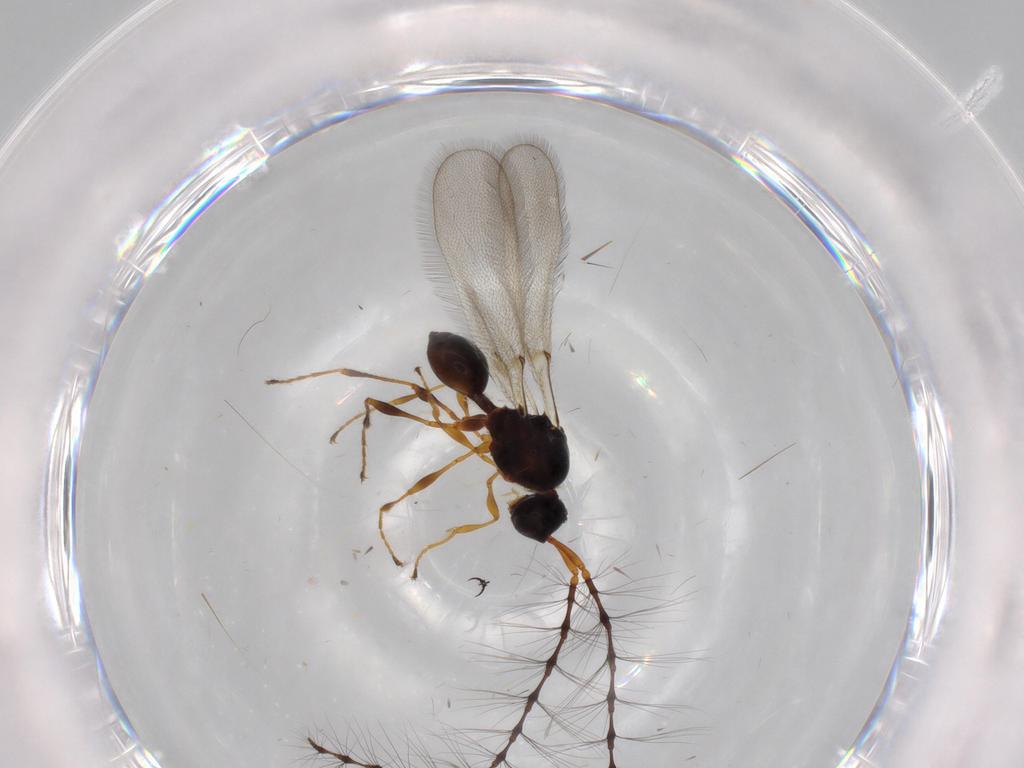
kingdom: Animalia
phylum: Arthropoda
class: Insecta
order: Hymenoptera
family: Diapriidae
